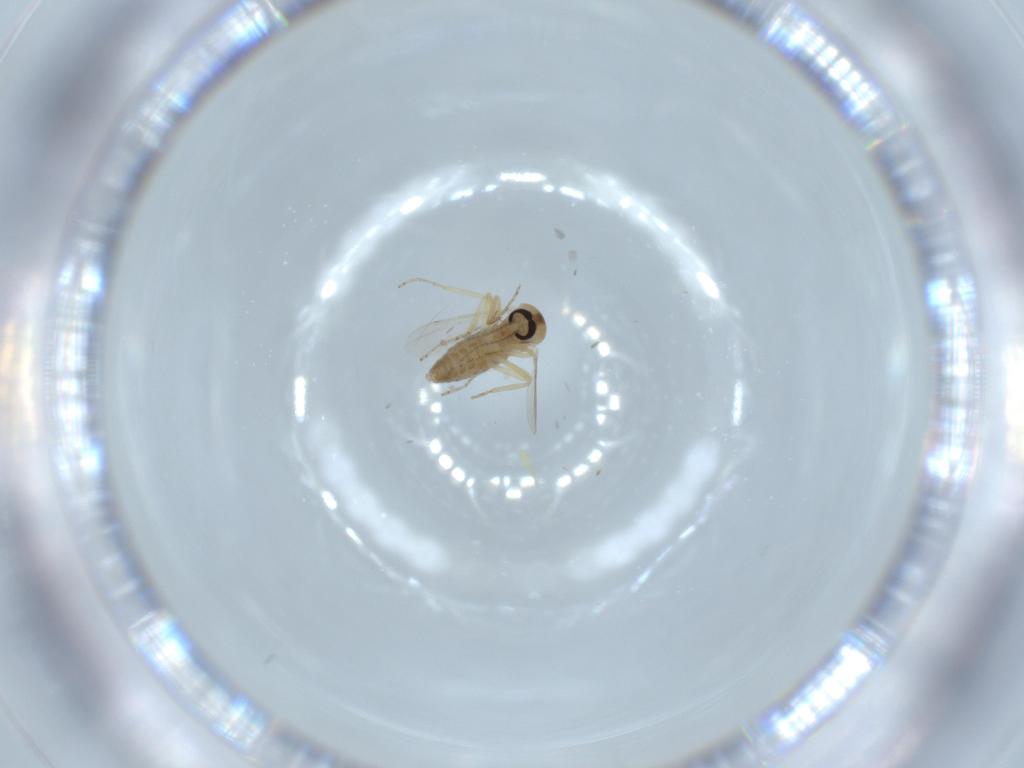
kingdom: Animalia
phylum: Arthropoda
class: Insecta
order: Diptera
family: Ceratopogonidae
